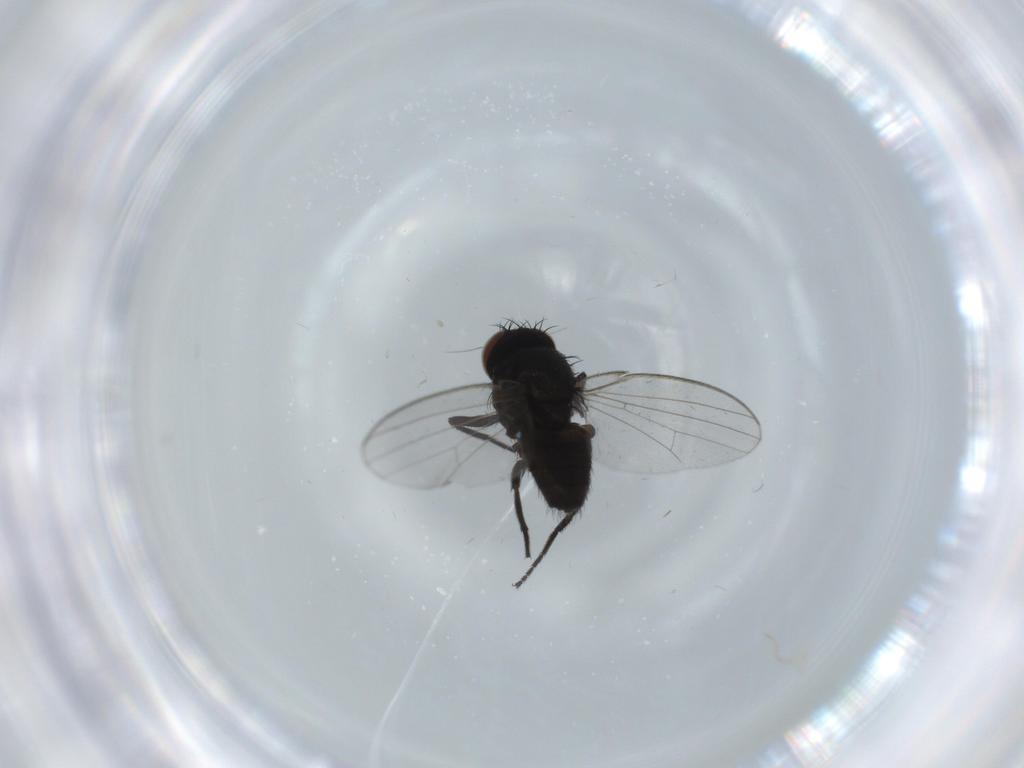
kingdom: Animalia
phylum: Arthropoda
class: Insecta
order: Diptera
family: Milichiidae
